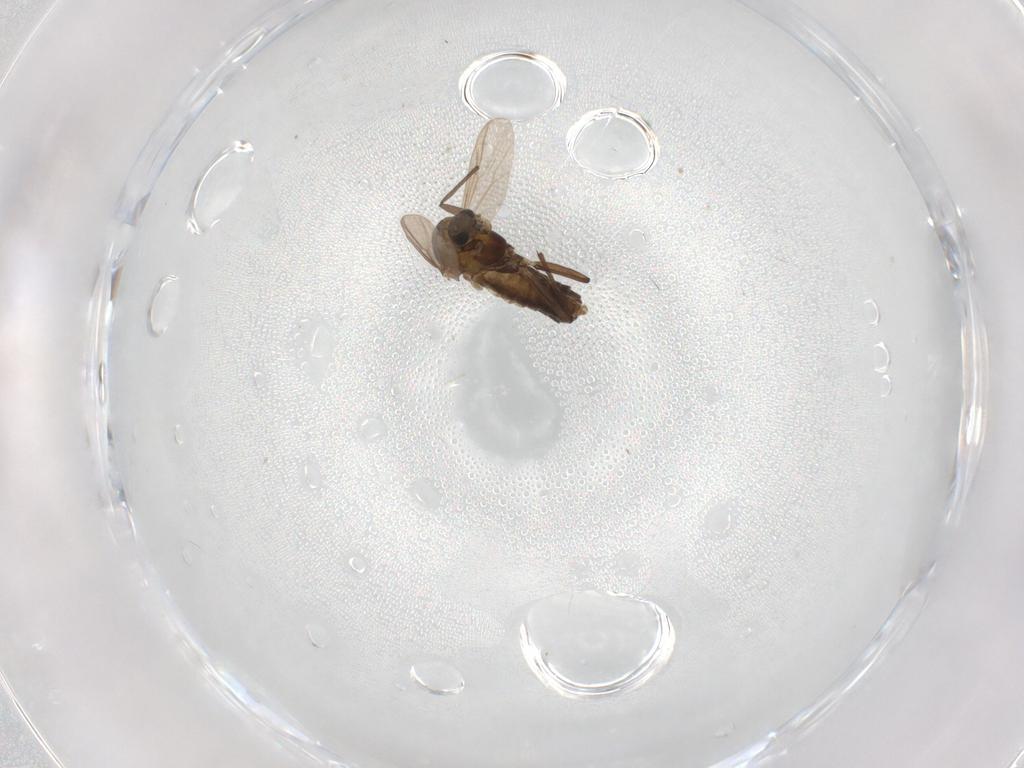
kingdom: Animalia
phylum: Arthropoda
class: Insecta
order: Diptera
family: Chironomidae
